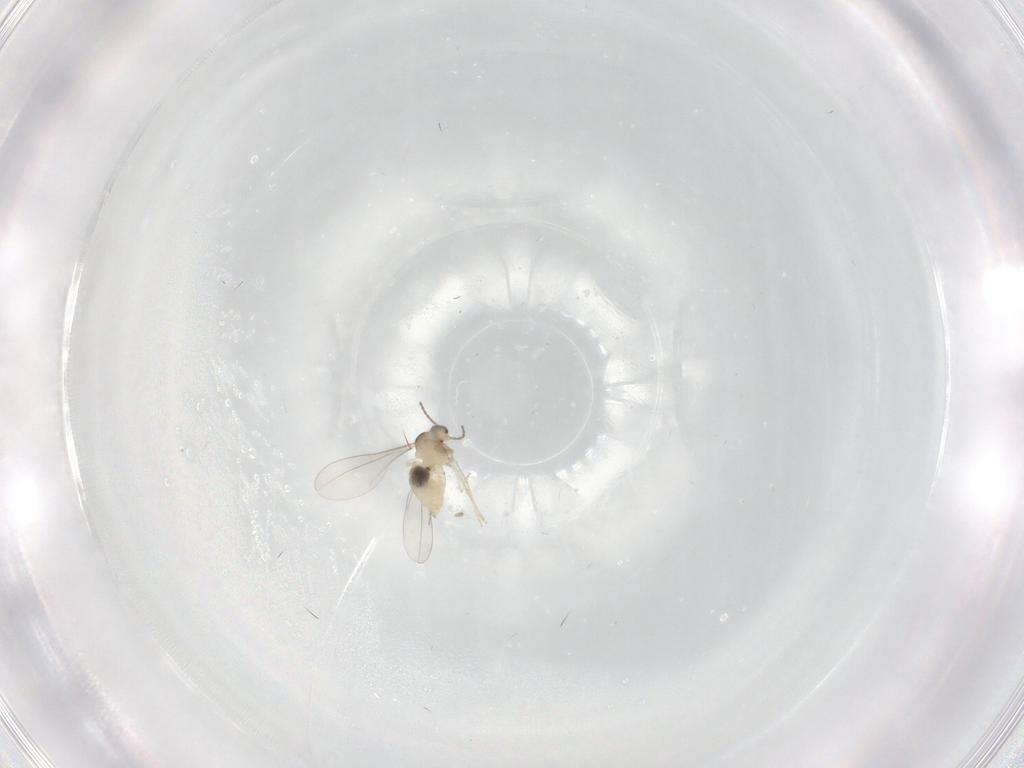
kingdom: Animalia
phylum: Arthropoda
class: Insecta
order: Diptera
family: Cecidomyiidae
